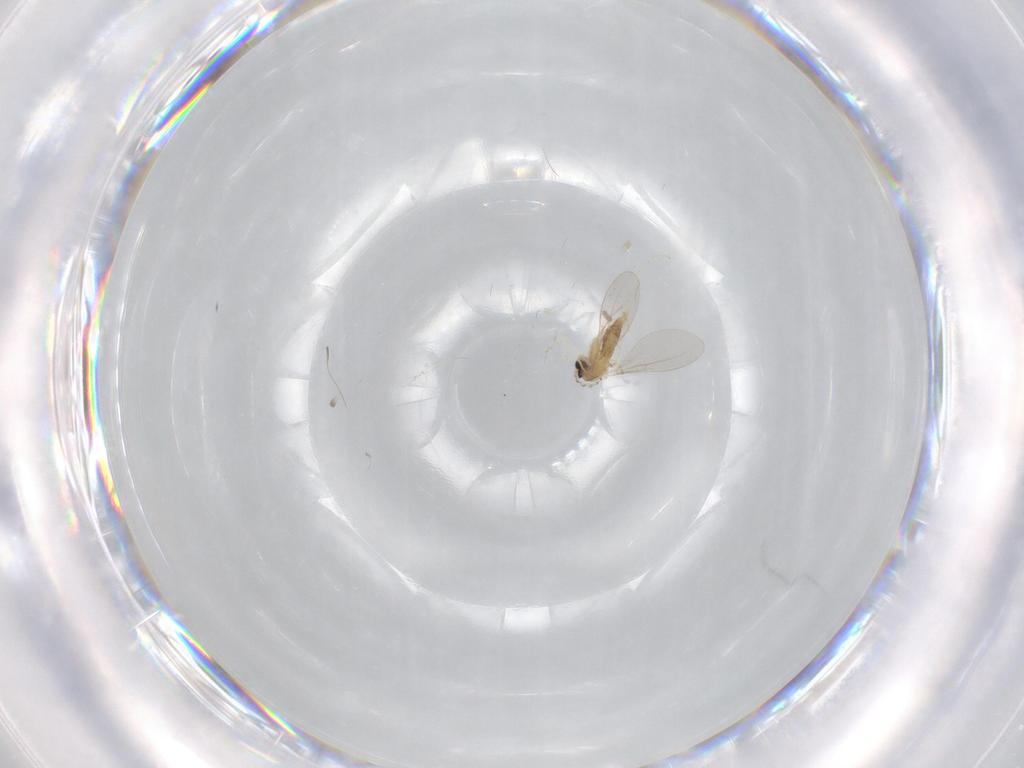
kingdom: Animalia
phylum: Arthropoda
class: Insecta
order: Diptera
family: Cecidomyiidae
